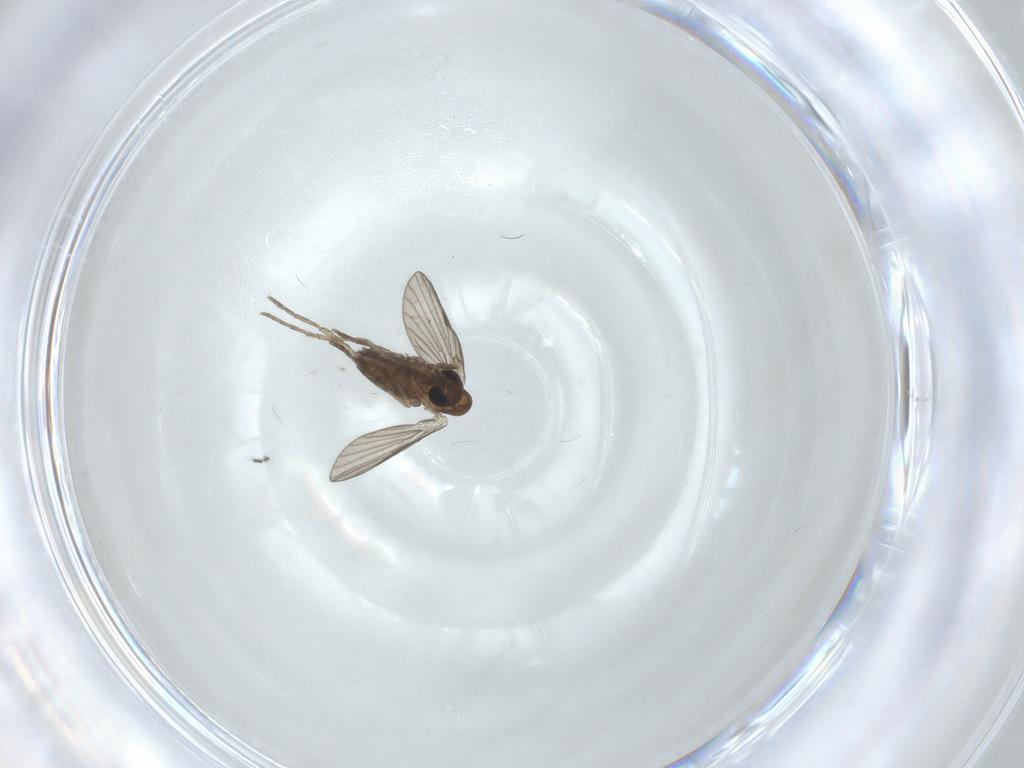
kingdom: Animalia
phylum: Arthropoda
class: Insecta
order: Diptera
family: Psychodidae
